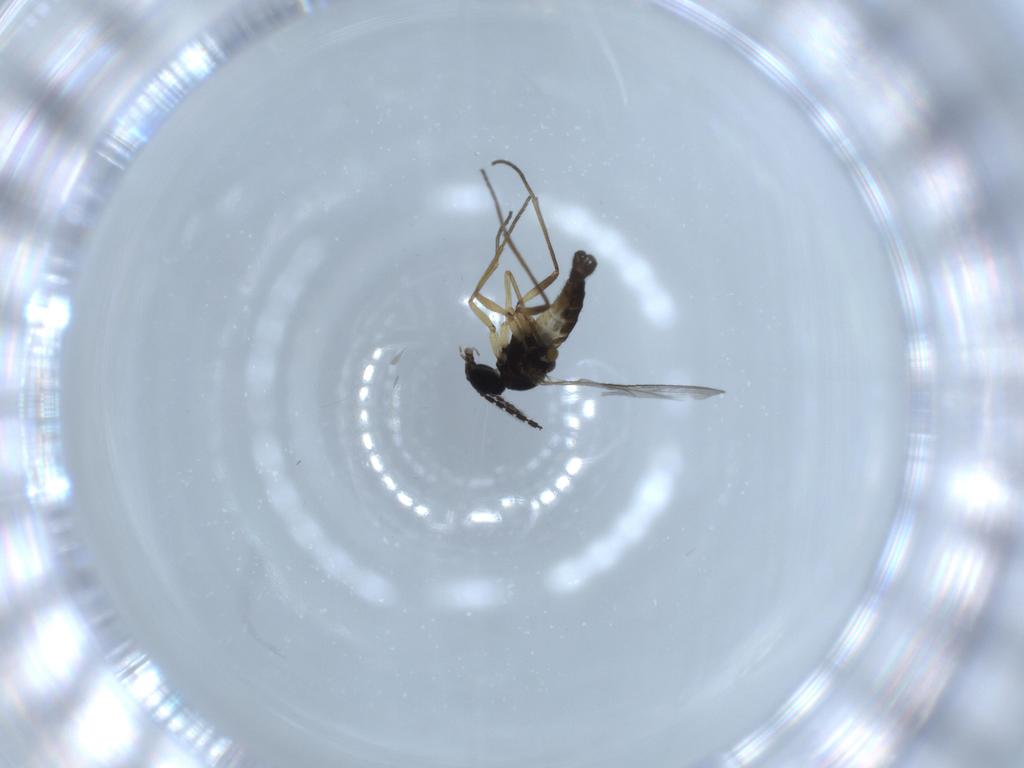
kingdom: Animalia
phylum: Arthropoda
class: Insecta
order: Diptera
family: Sciaridae
